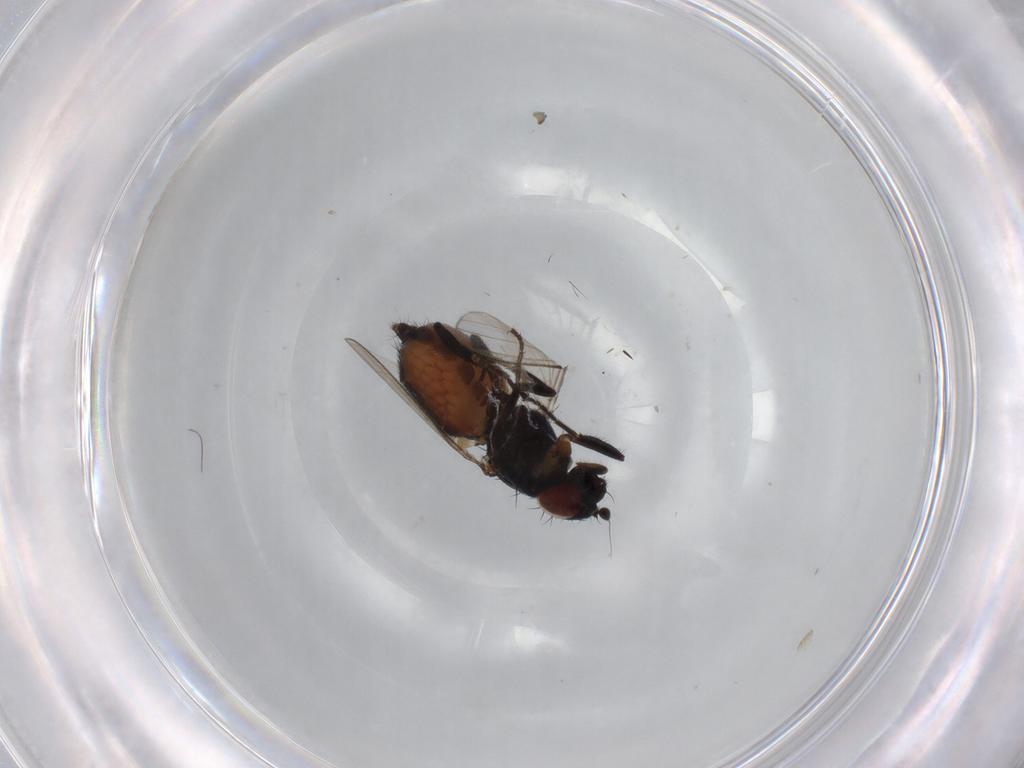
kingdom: Animalia
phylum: Arthropoda
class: Insecta
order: Diptera
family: Milichiidae
